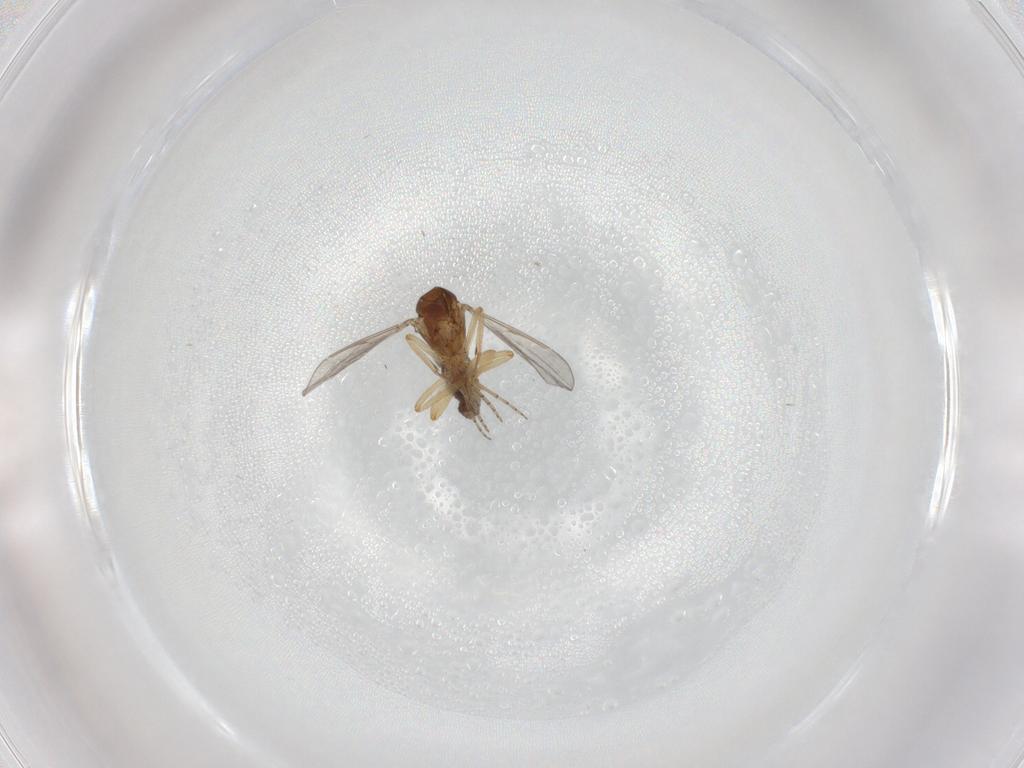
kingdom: Animalia
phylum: Arthropoda
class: Insecta
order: Diptera
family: Ceratopogonidae
